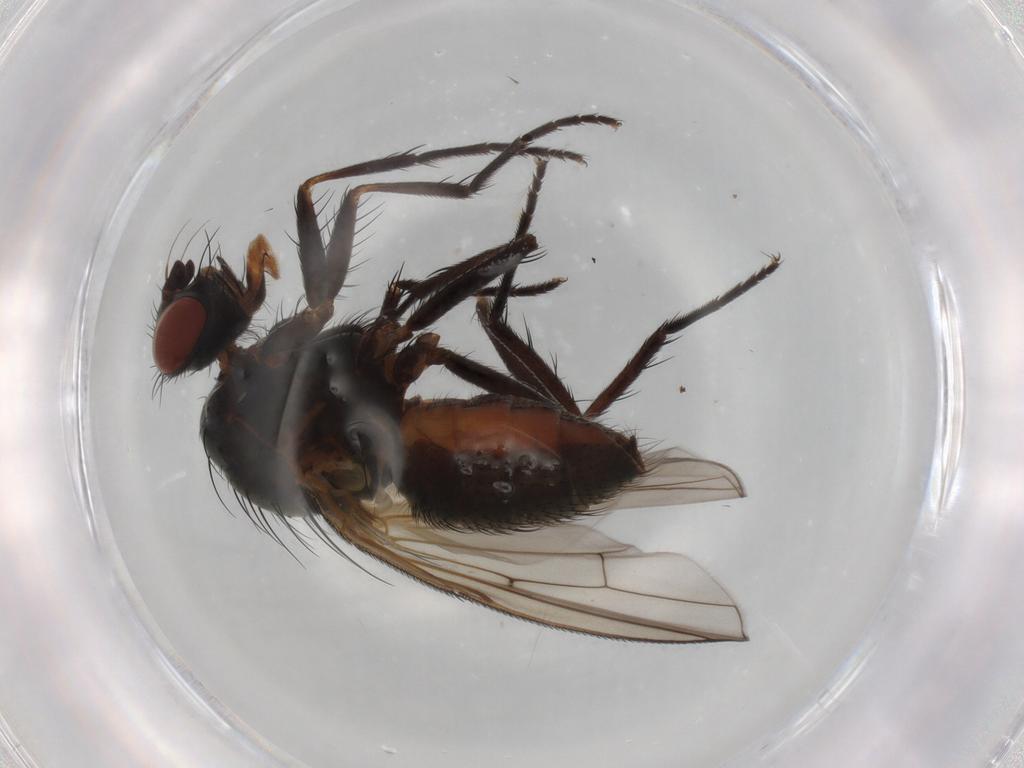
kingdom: Animalia
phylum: Arthropoda
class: Insecta
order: Diptera
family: Anthomyiidae
